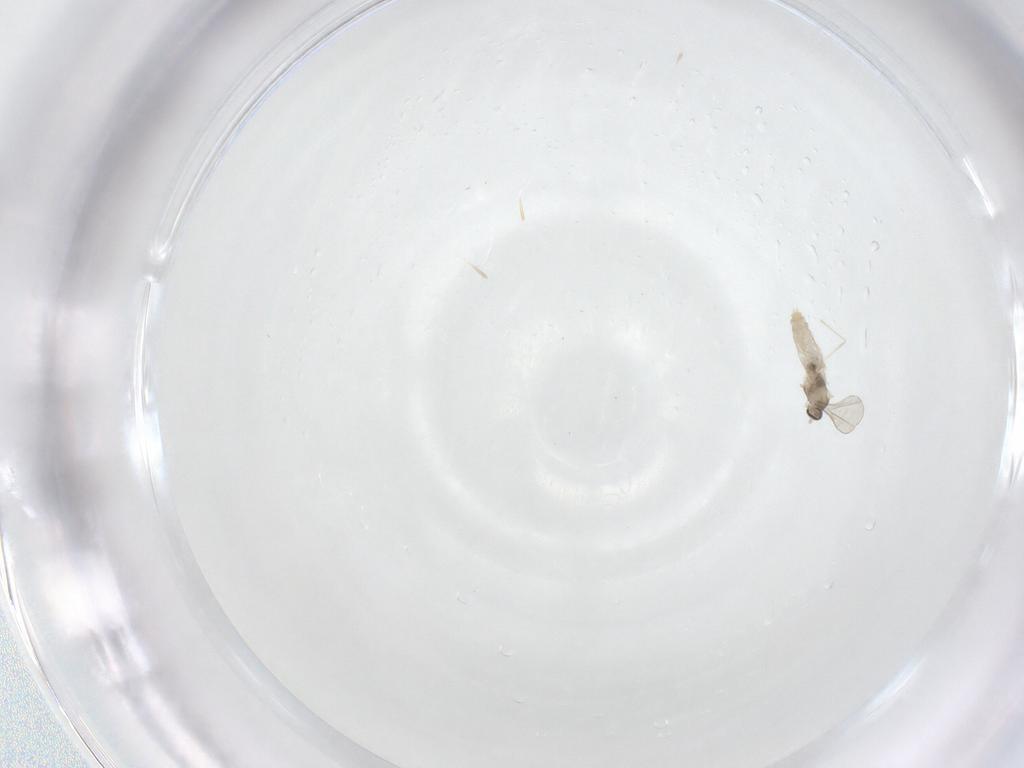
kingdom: Animalia
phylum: Arthropoda
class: Insecta
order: Diptera
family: Cecidomyiidae
